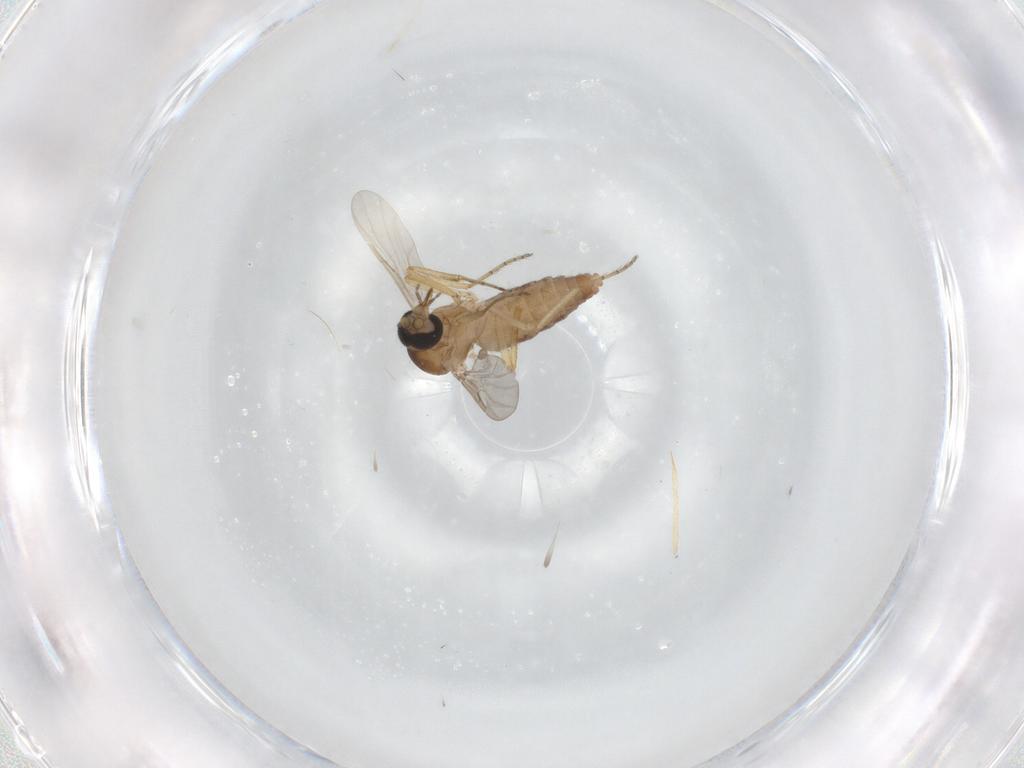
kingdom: Animalia
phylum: Arthropoda
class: Insecta
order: Diptera
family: Ceratopogonidae
